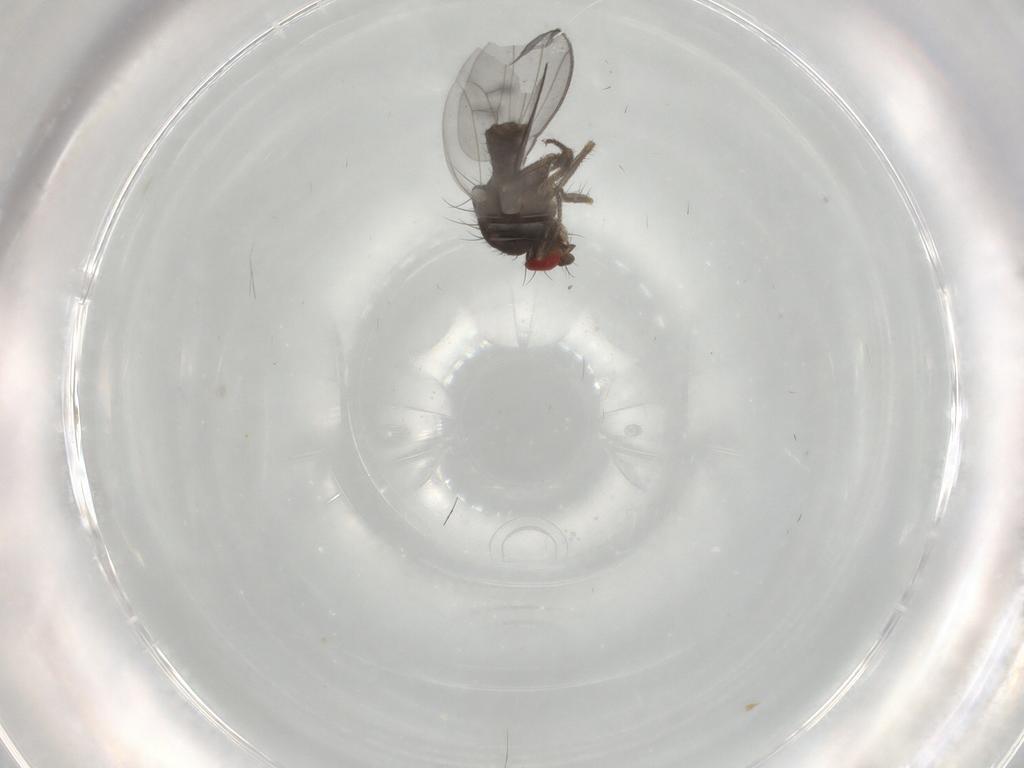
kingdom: Animalia
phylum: Arthropoda
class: Insecta
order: Diptera
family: Drosophilidae
